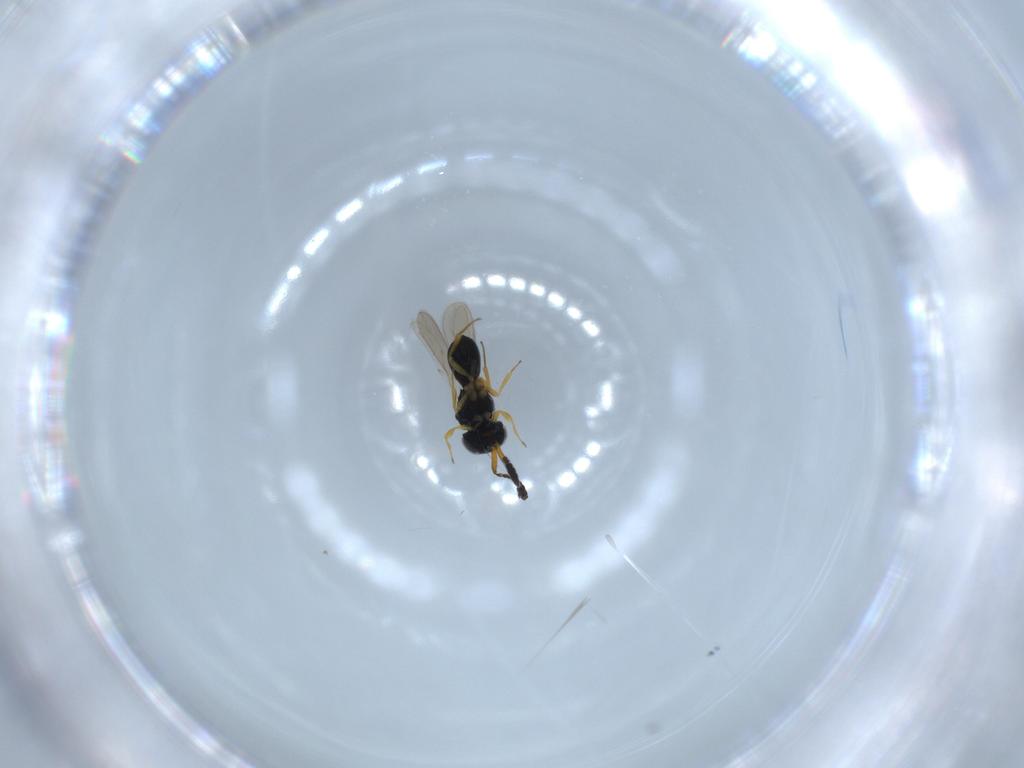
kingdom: Animalia
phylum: Arthropoda
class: Insecta
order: Hymenoptera
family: Scelionidae
